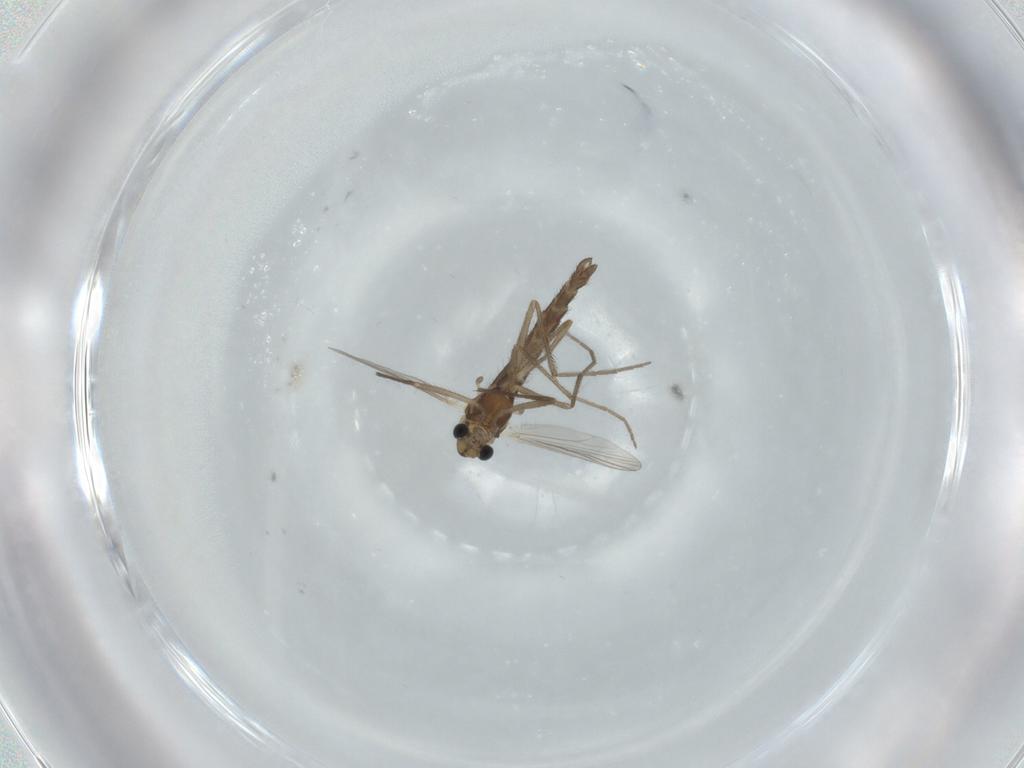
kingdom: Animalia
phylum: Arthropoda
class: Insecta
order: Diptera
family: Chironomidae
